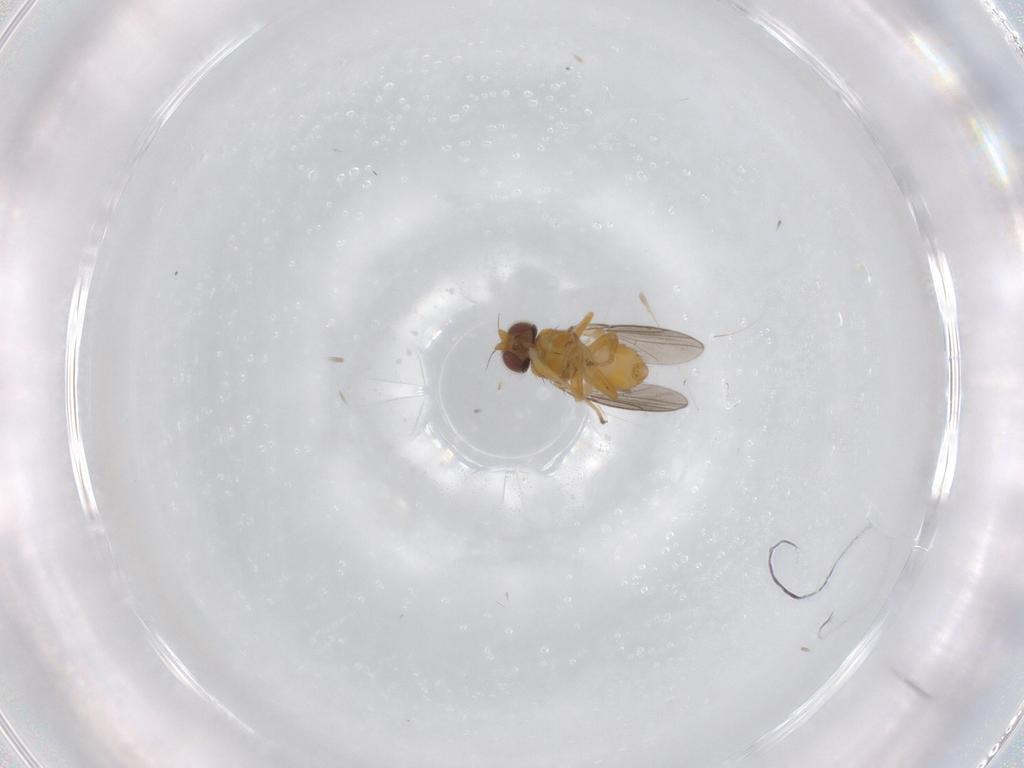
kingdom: Animalia
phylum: Arthropoda
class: Insecta
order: Diptera
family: Chloropidae
